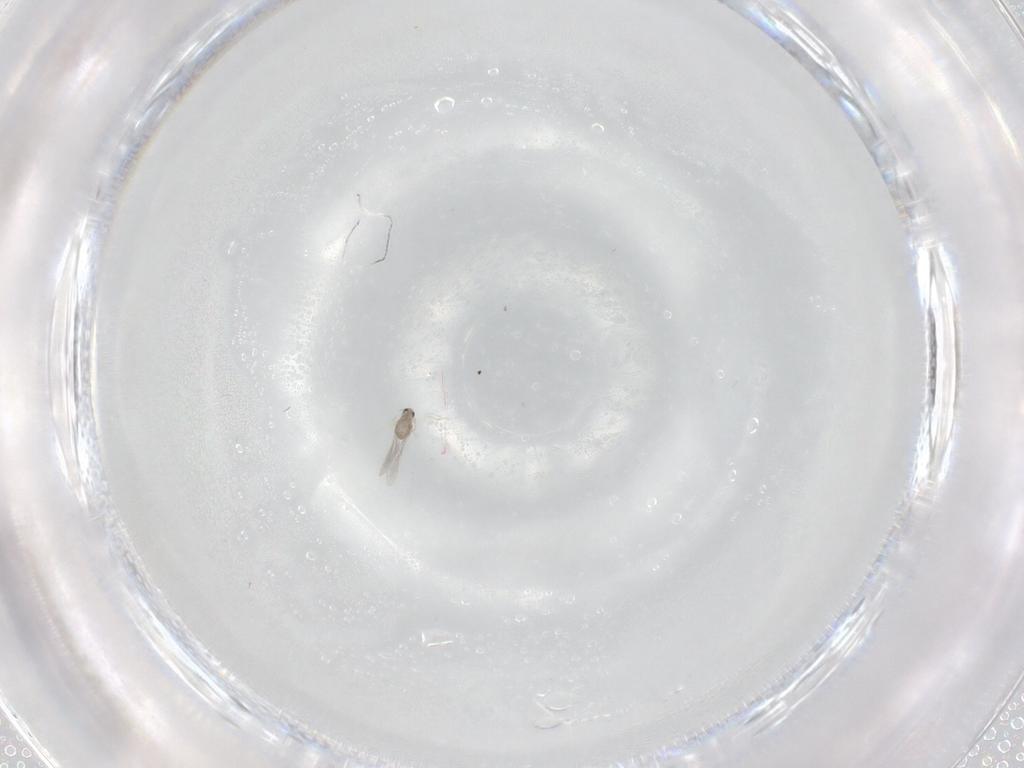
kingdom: Animalia
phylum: Arthropoda
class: Insecta
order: Diptera
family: Cecidomyiidae
